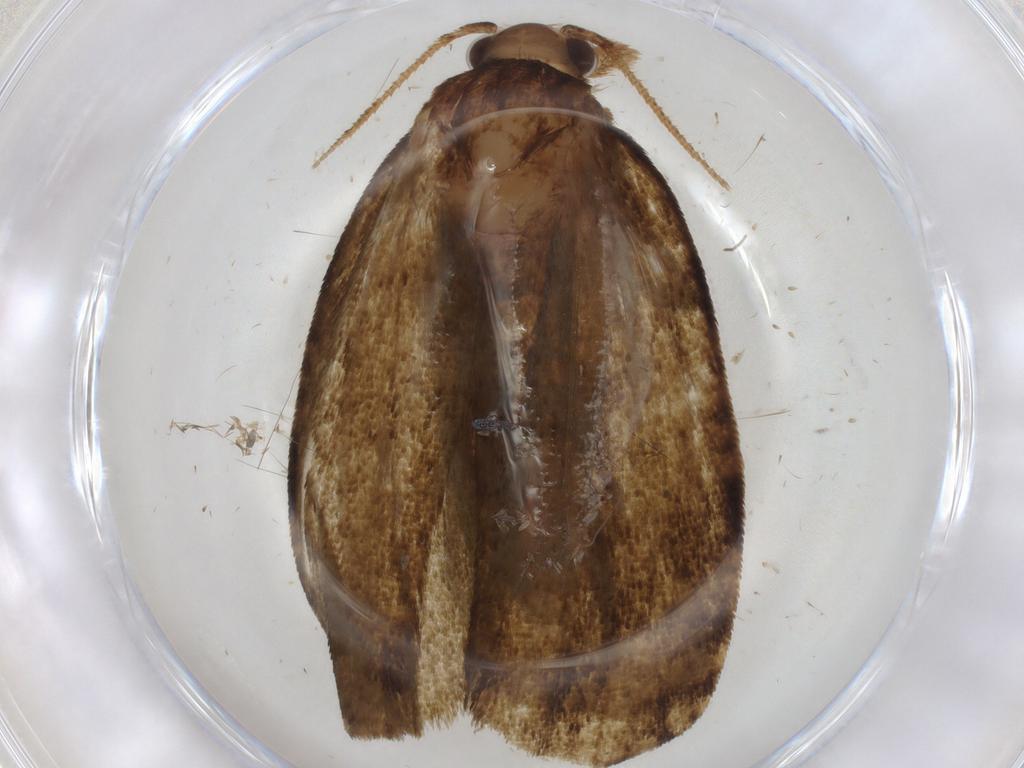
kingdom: Animalia
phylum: Arthropoda
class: Insecta
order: Lepidoptera
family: Geometridae
